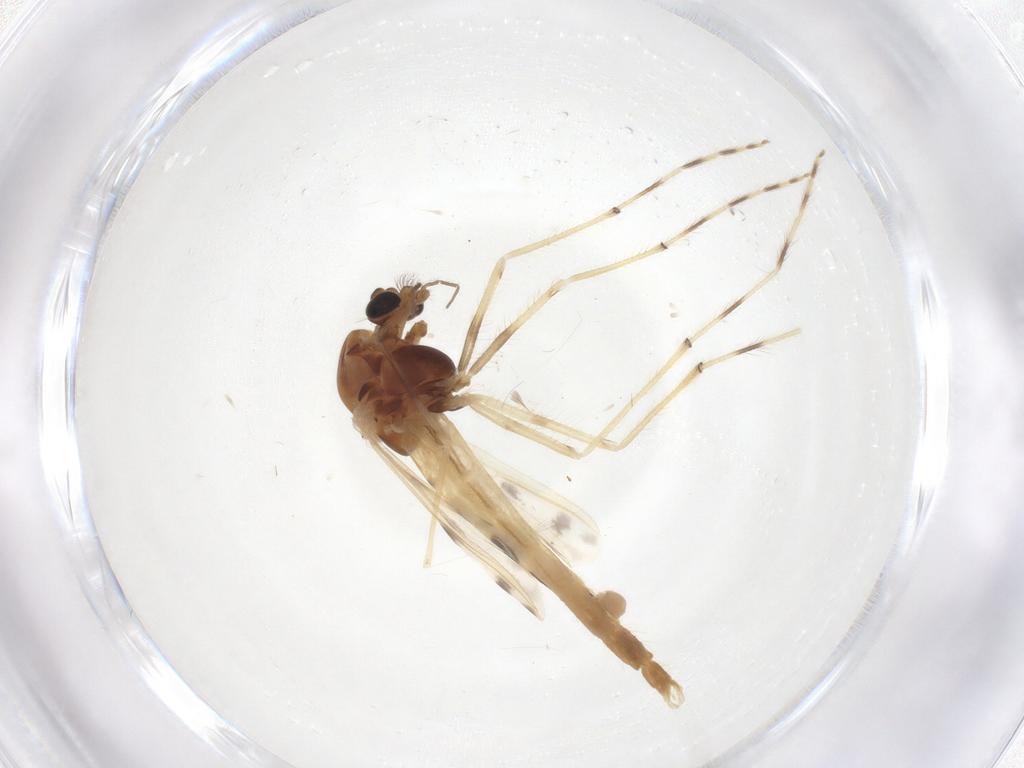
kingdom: Animalia
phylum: Arthropoda
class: Insecta
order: Diptera
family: Chironomidae
